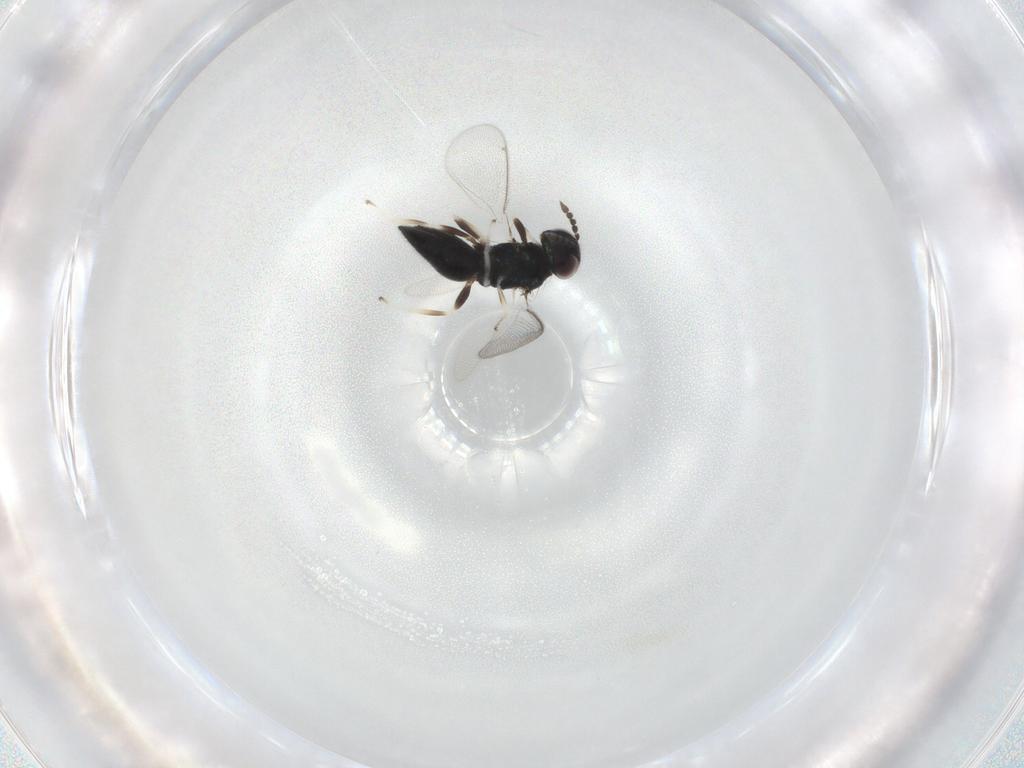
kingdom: Animalia
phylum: Arthropoda
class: Insecta
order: Hymenoptera
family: Eulophidae
